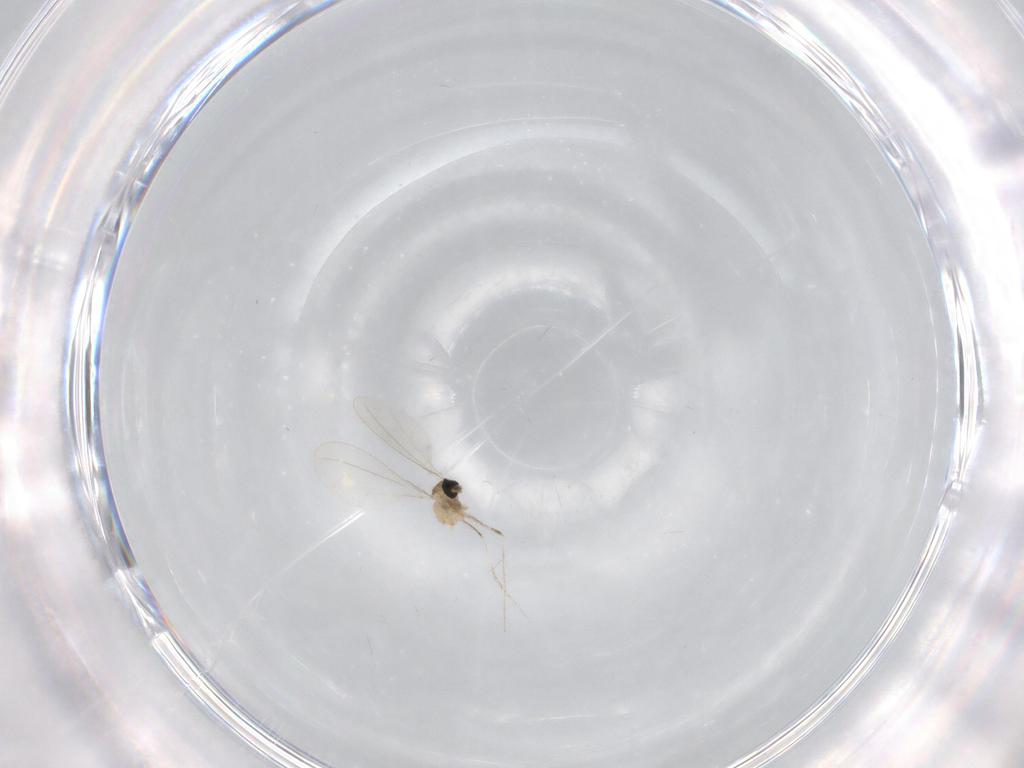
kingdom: Animalia
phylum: Arthropoda
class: Insecta
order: Diptera
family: Cecidomyiidae
